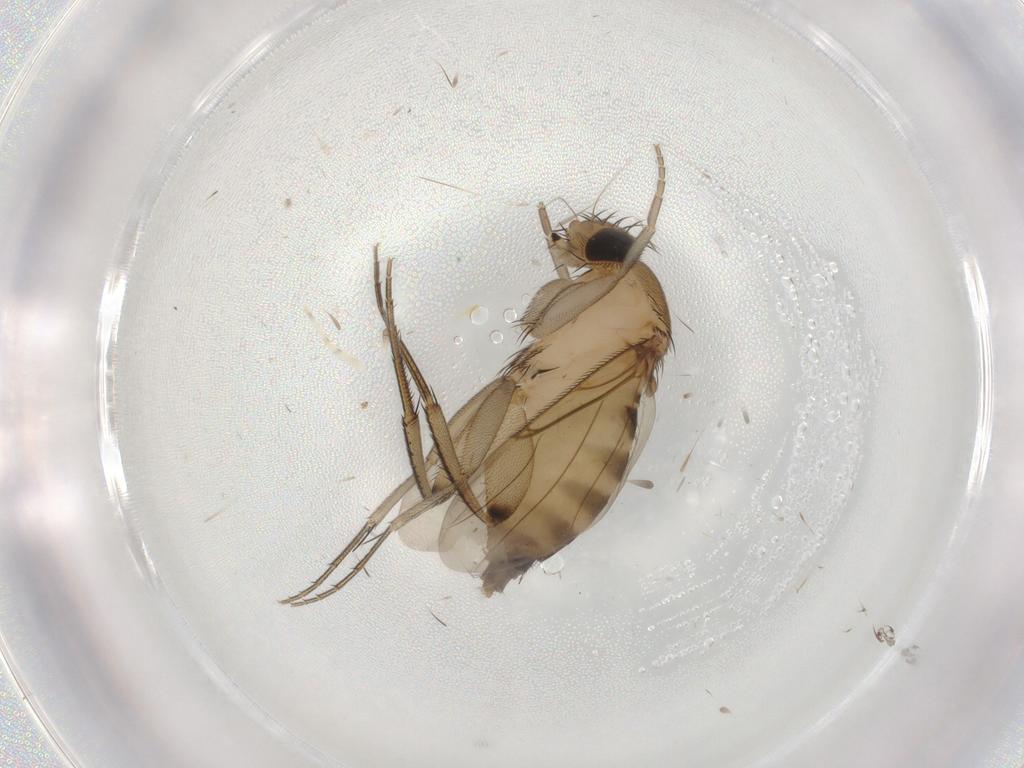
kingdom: Animalia
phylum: Arthropoda
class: Insecta
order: Diptera
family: Phoridae
